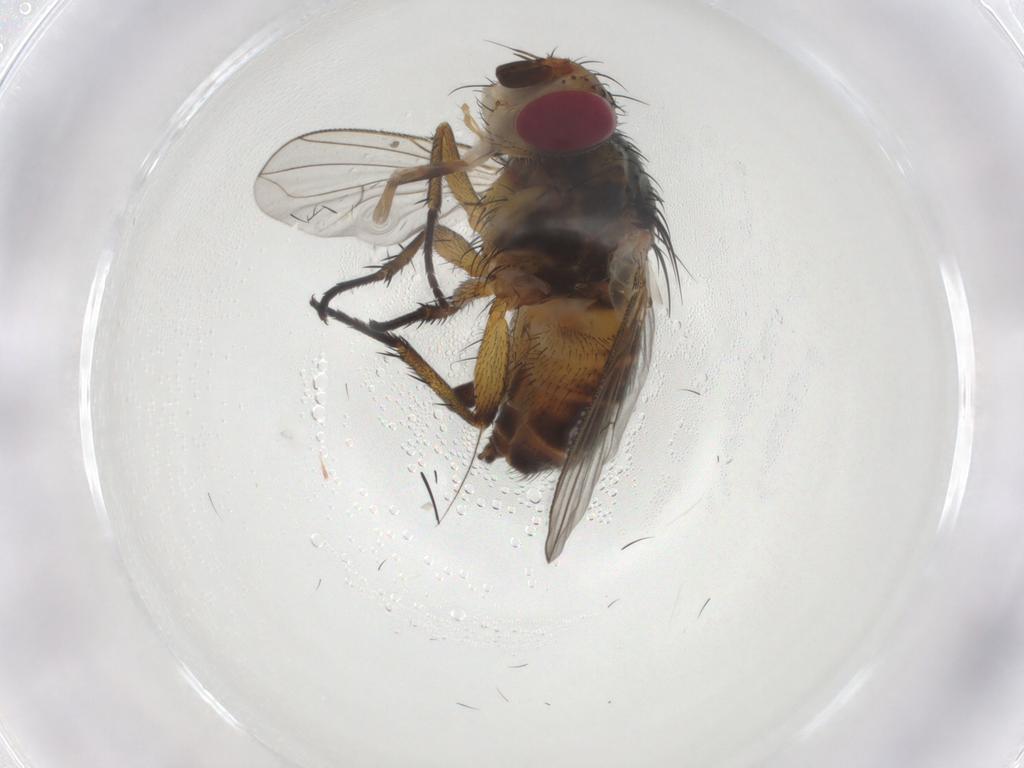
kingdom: Animalia
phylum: Arthropoda
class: Insecta
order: Diptera
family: Tachinidae
